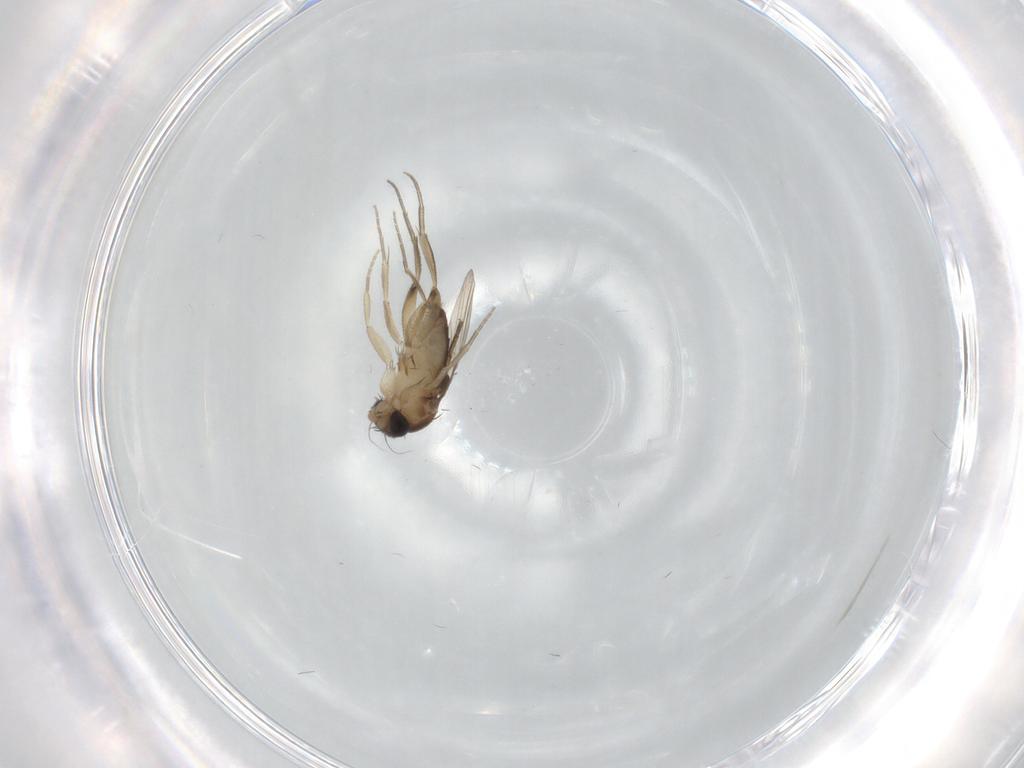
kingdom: Animalia
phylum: Arthropoda
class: Insecta
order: Diptera
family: Phoridae
